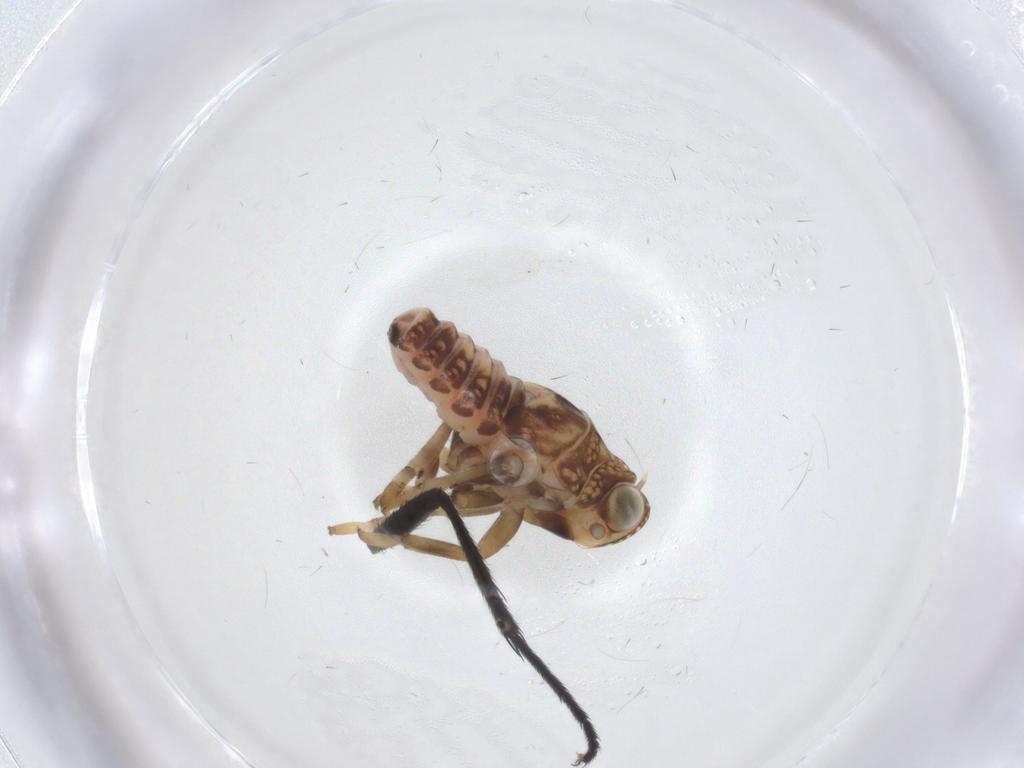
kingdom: Animalia
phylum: Arthropoda
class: Insecta
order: Hemiptera
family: Issidae
